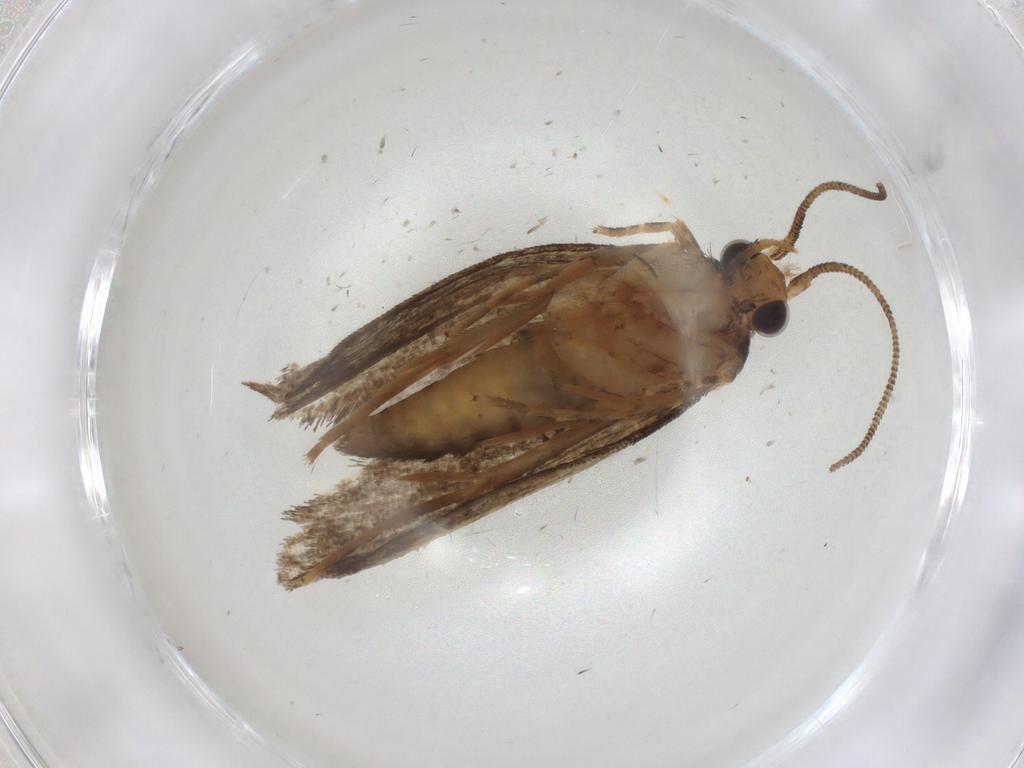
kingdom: Animalia
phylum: Arthropoda
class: Insecta
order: Lepidoptera
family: Tineidae
